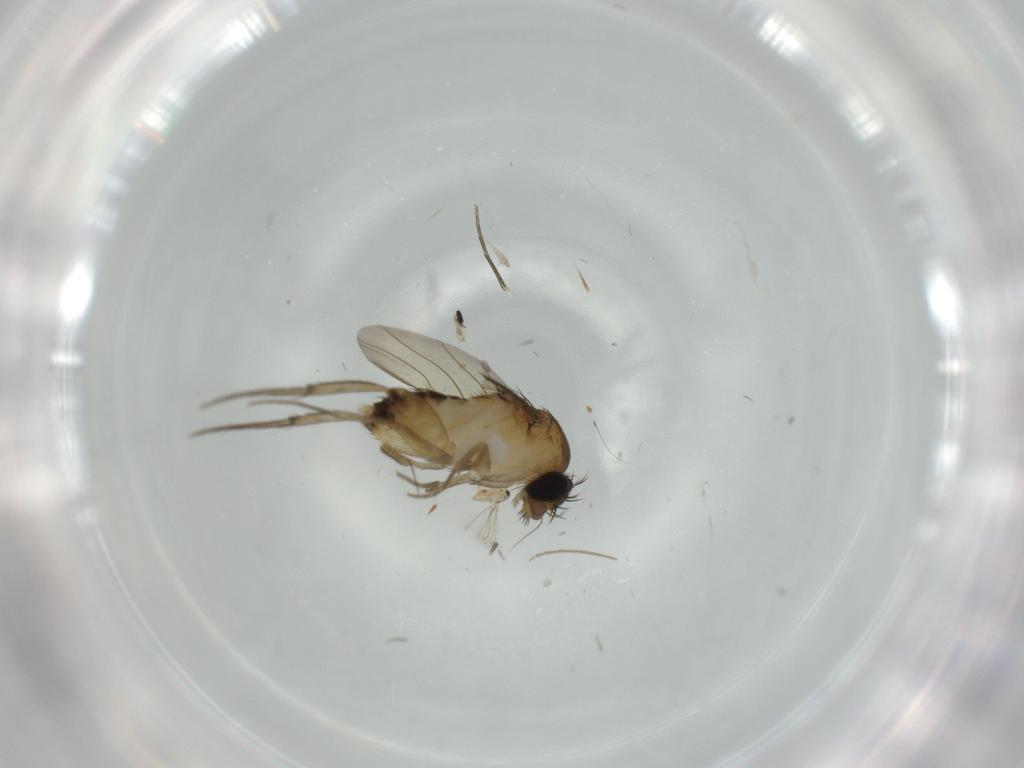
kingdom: Animalia
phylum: Arthropoda
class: Insecta
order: Diptera
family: Phoridae
